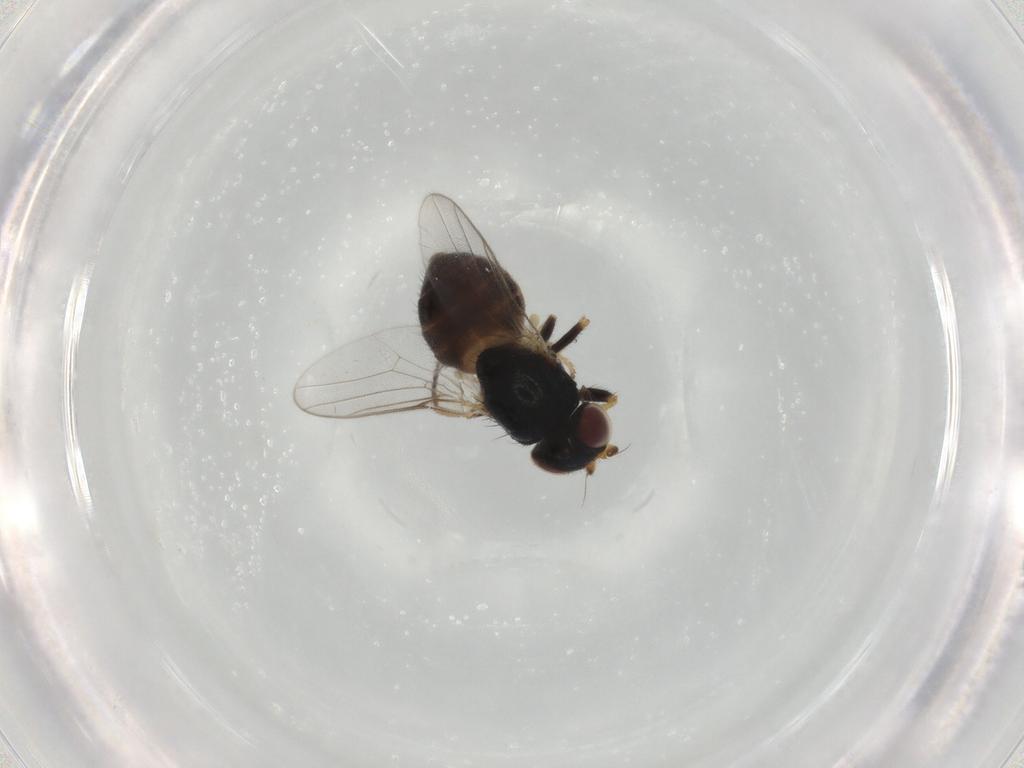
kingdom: Animalia
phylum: Arthropoda
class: Insecta
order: Diptera
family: Chloropidae
